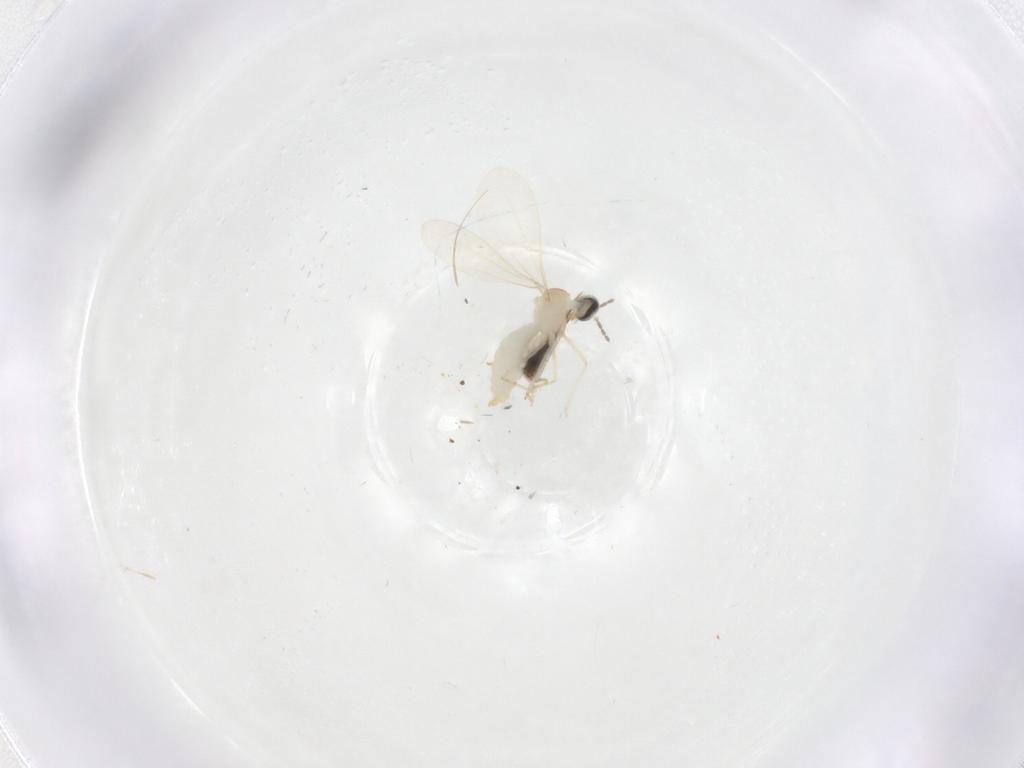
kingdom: Animalia
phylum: Arthropoda
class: Insecta
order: Diptera
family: Cecidomyiidae
